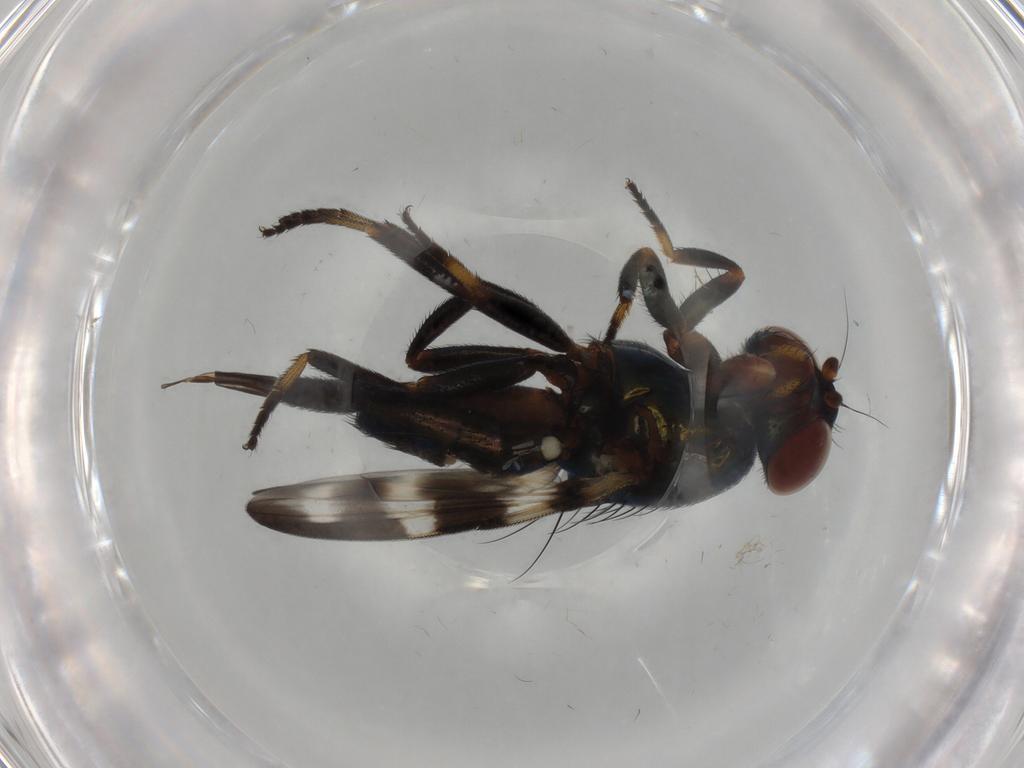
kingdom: Animalia
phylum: Arthropoda
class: Insecta
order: Diptera
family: Ulidiidae
